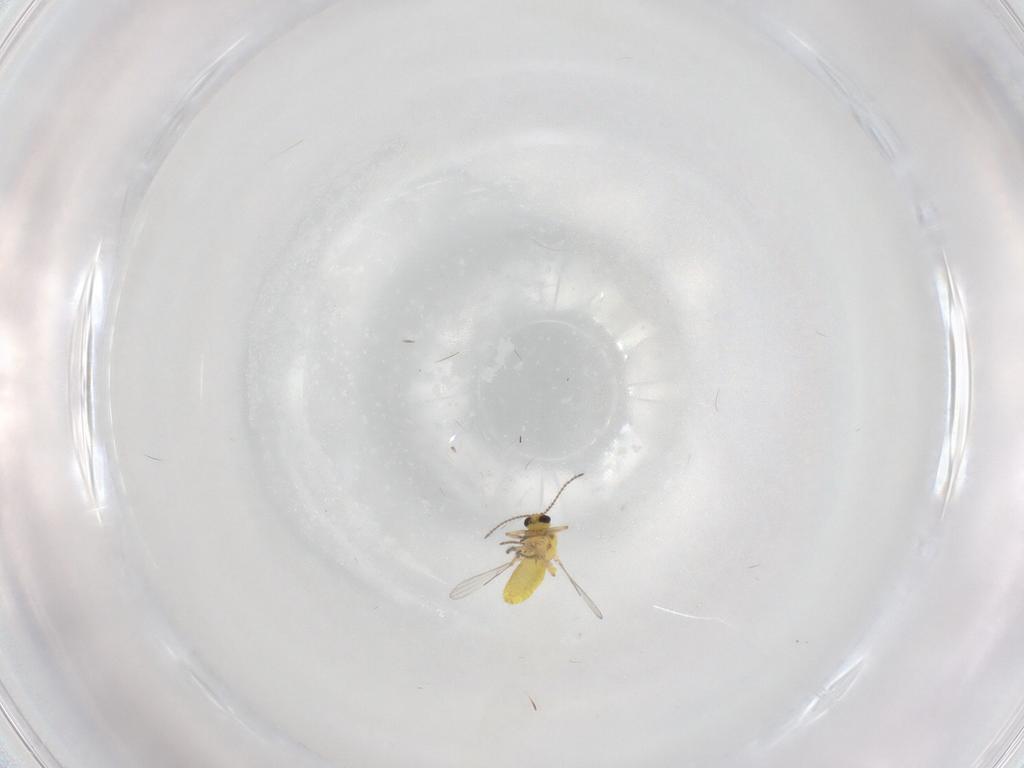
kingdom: Animalia
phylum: Arthropoda
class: Insecta
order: Diptera
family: Ceratopogonidae
